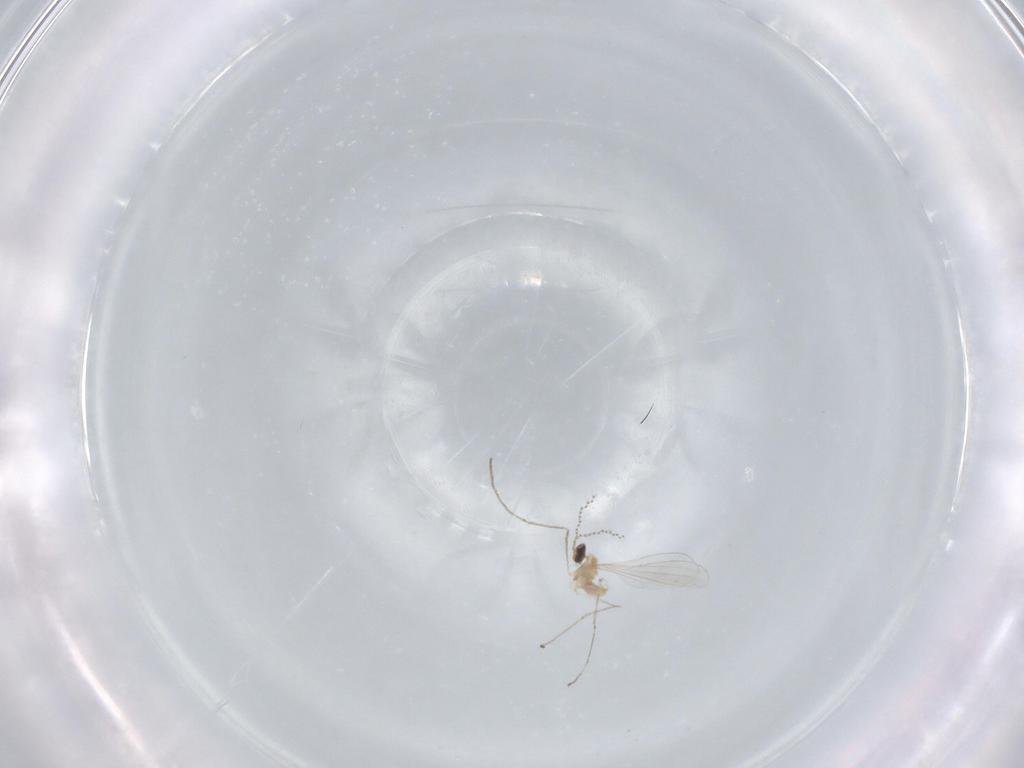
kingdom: Animalia
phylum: Arthropoda
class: Insecta
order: Diptera
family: Cecidomyiidae
